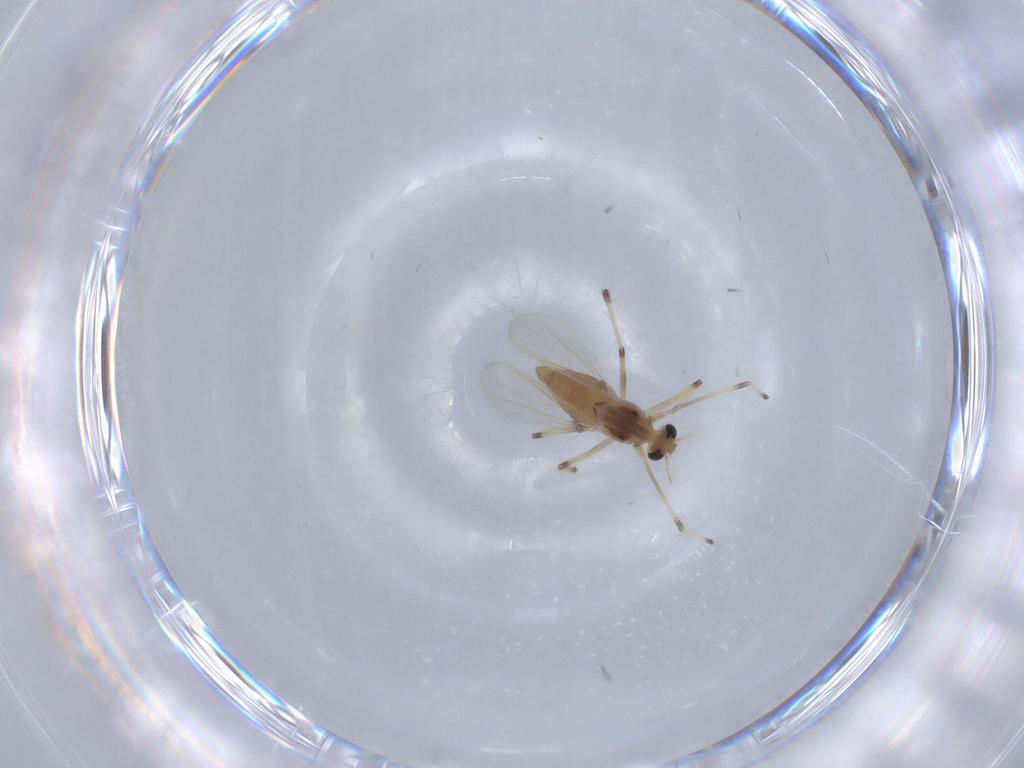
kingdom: Animalia
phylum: Arthropoda
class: Insecta
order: Diptera
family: Chironomidae
